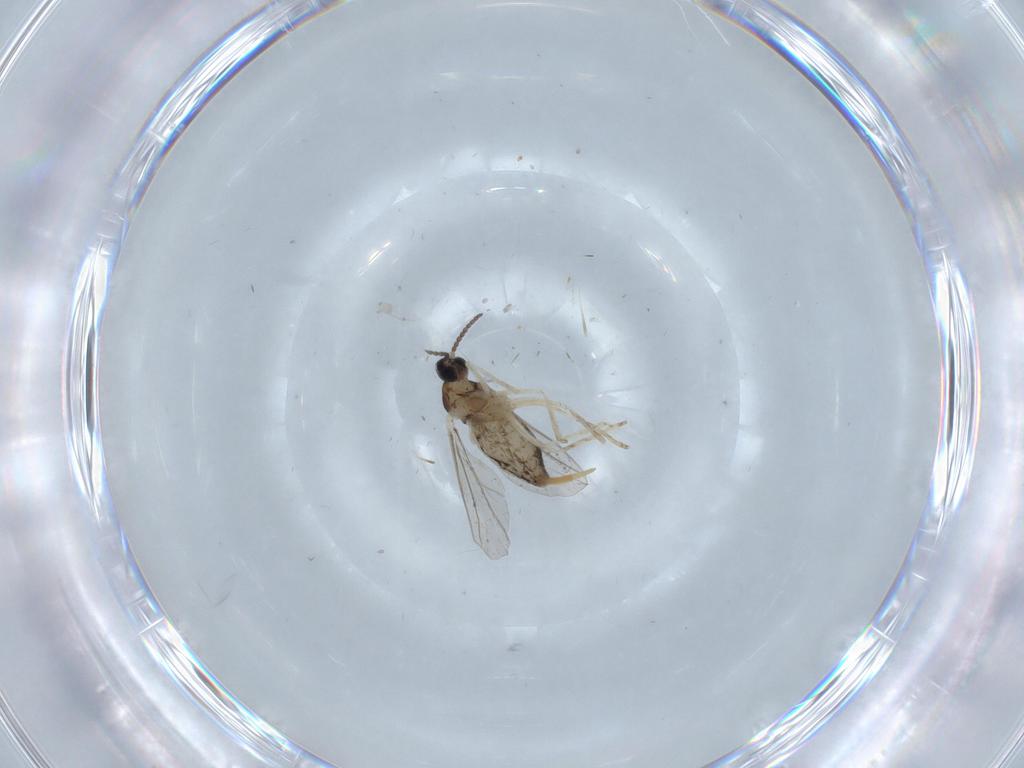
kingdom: Animalia
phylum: Arthropoda
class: Insecta
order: Diptera
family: Cecidomyiidae
